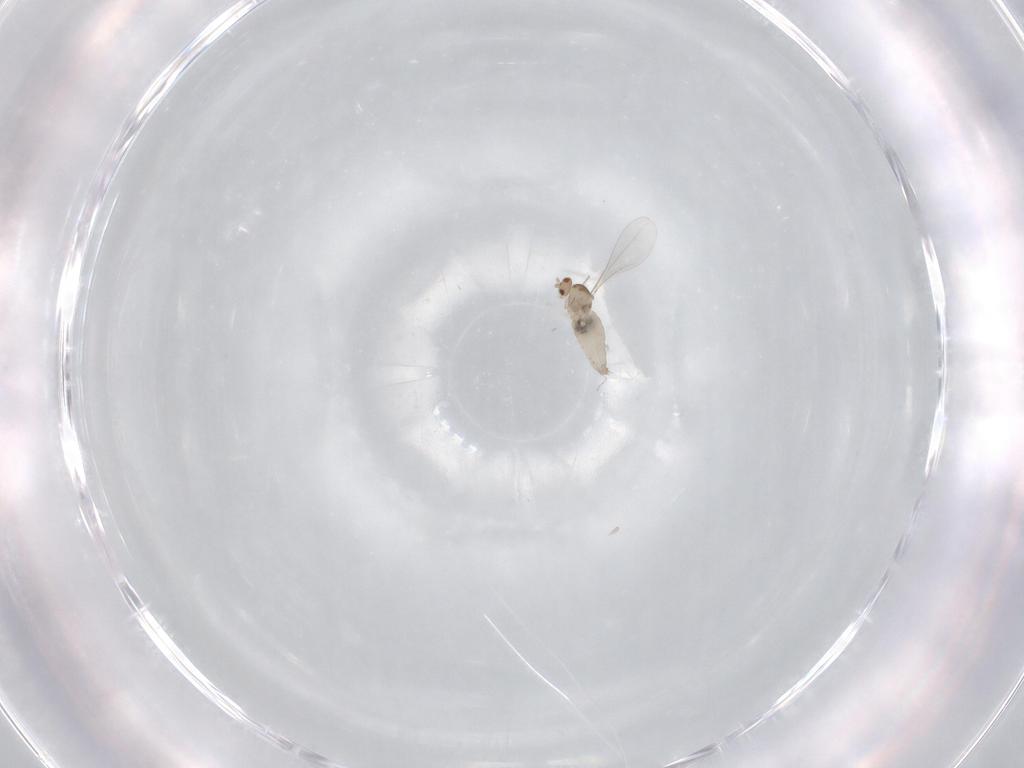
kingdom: Animalia
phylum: Arthropoda
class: Insecta
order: Diptera
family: Cecidomyiidae
